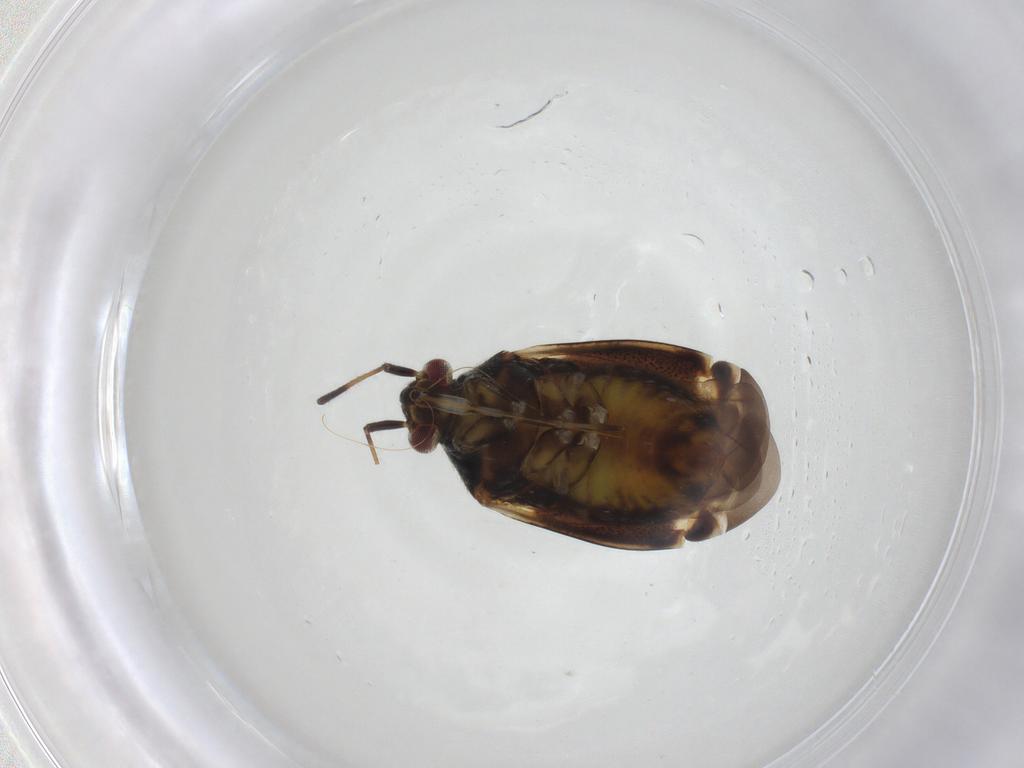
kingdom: Animalia
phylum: Arthropoda
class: Insecta
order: Hemiptera
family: Miridae
